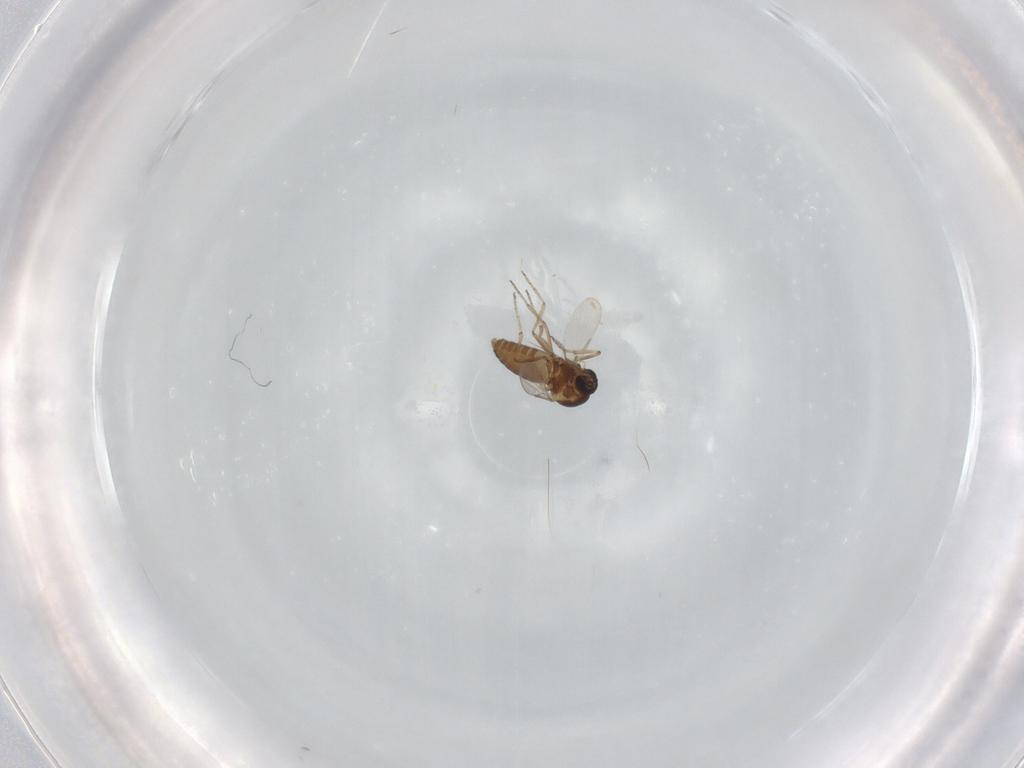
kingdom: Animalia
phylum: Arthropoda
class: Insecta
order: Diptera
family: Ceratopogonidae
